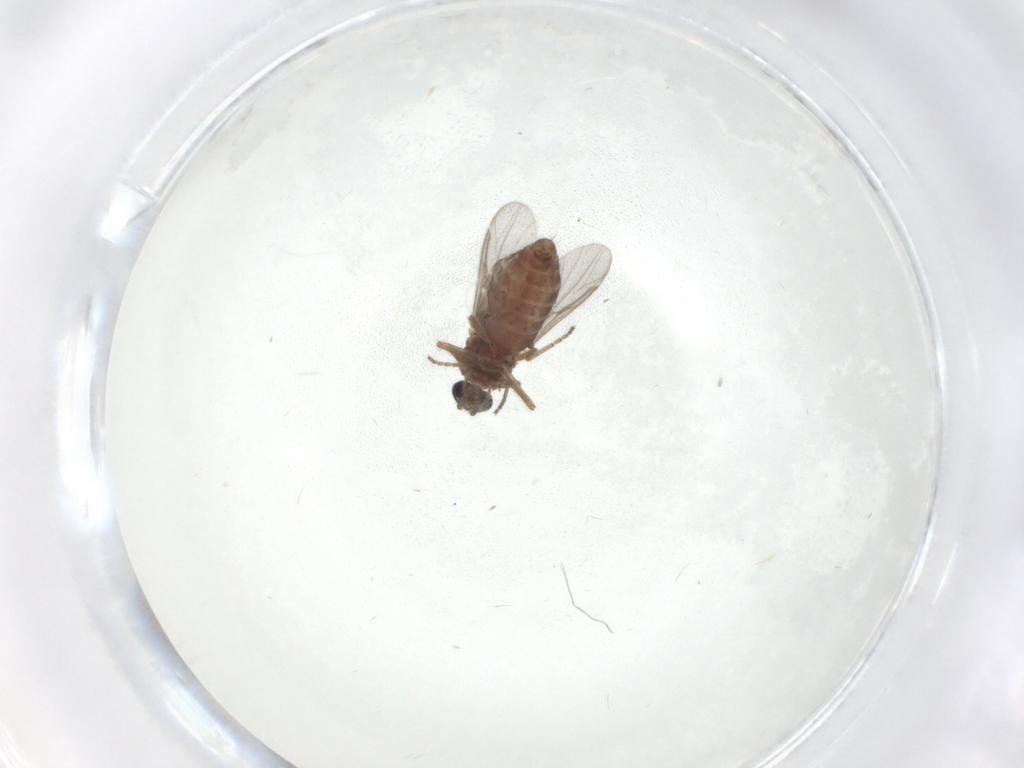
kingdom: Animalia
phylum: Arthropoda
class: Insecta
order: Diptera
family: Ceratopogonidae
